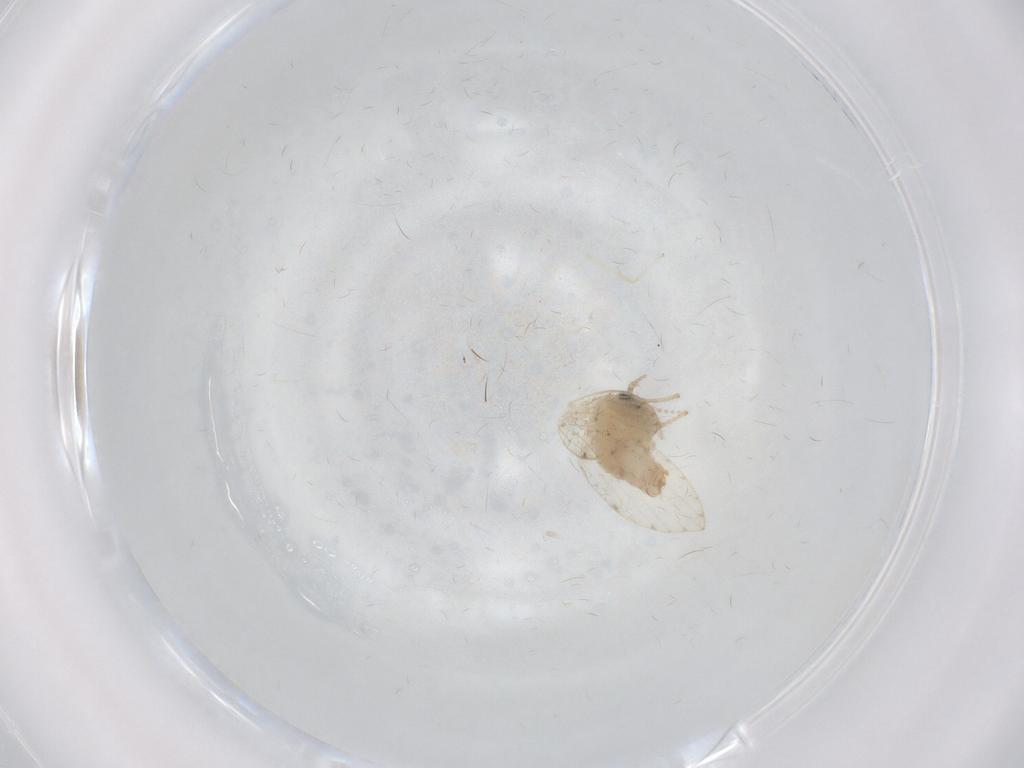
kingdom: Animalia
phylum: Arthropoda
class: Insecta
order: Diptera
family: Psychodidae
